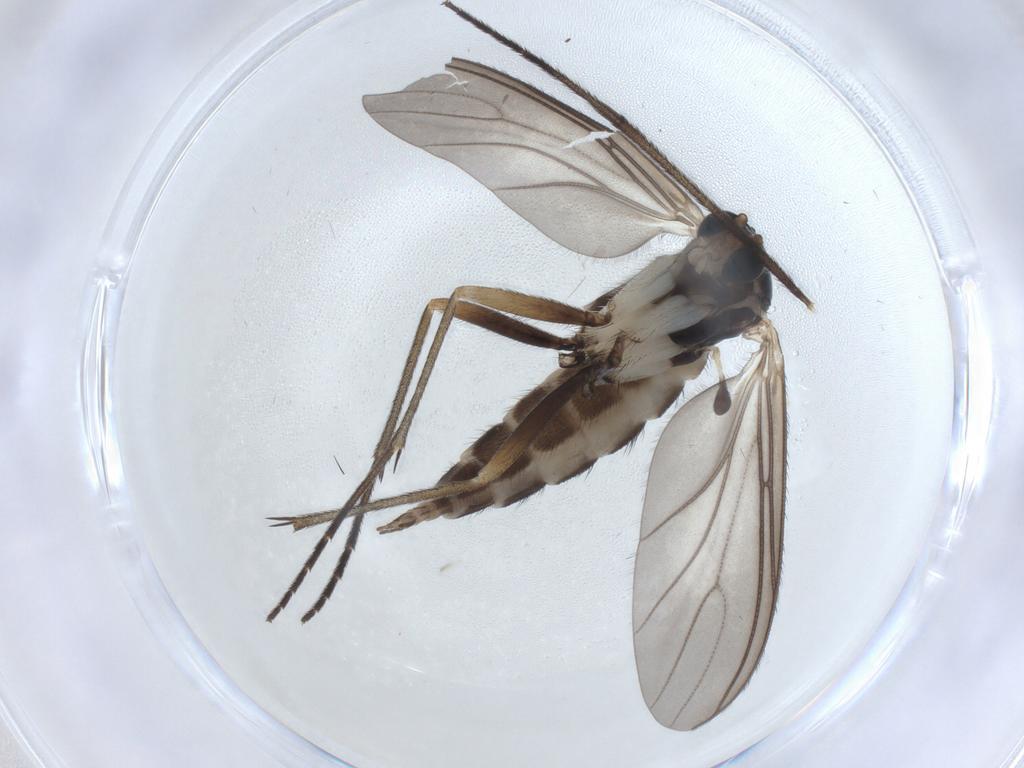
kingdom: Animalia
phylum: Arthropoda
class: Insecta
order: Diptera
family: Sciaridae
